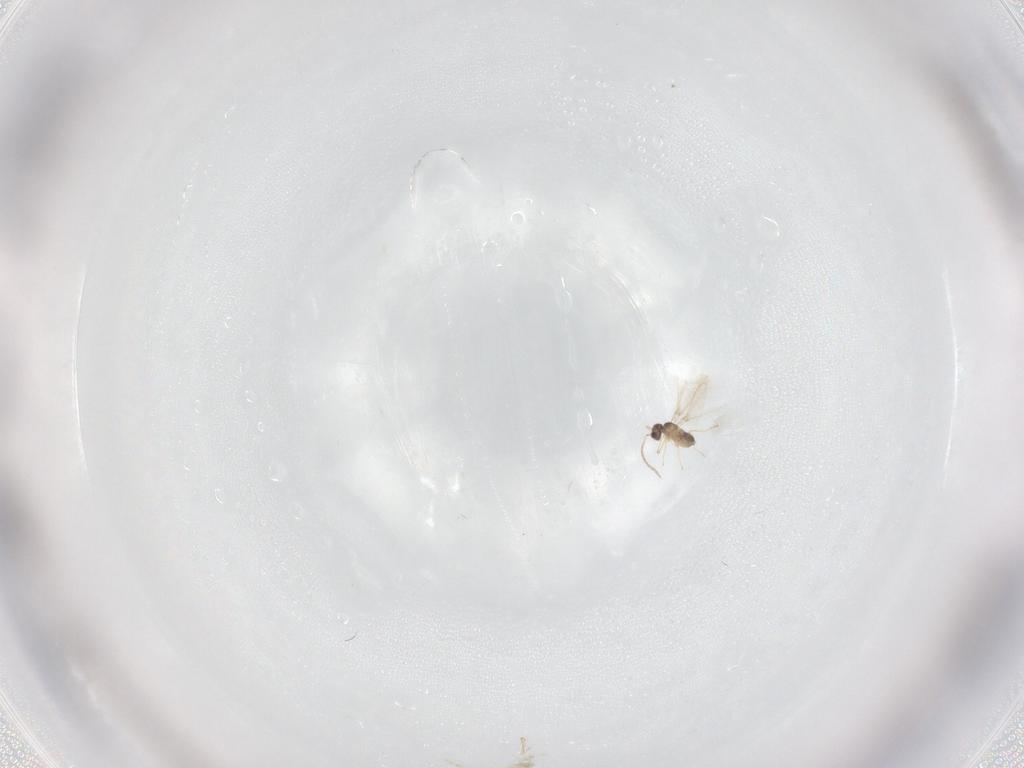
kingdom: Animalia
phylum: Arthropoda
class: Insecta
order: Hymenoptera
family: Mymaridae
